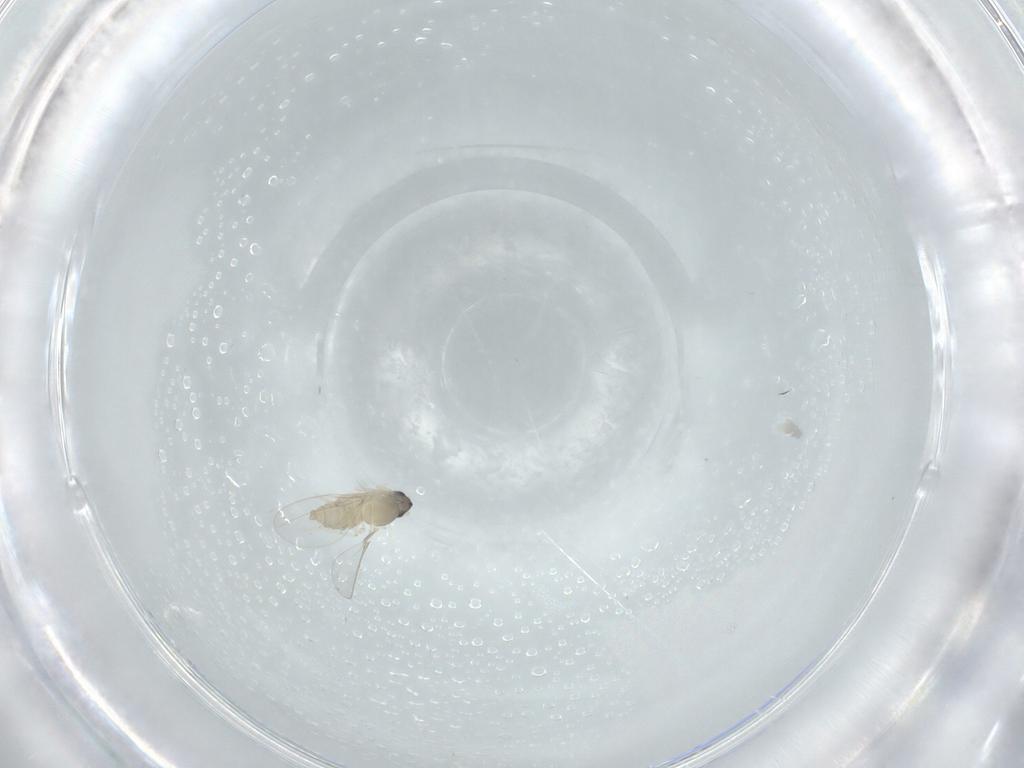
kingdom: Animalia
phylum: Arthropoda
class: Insecta
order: Diptera
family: Cecidomyiidae
